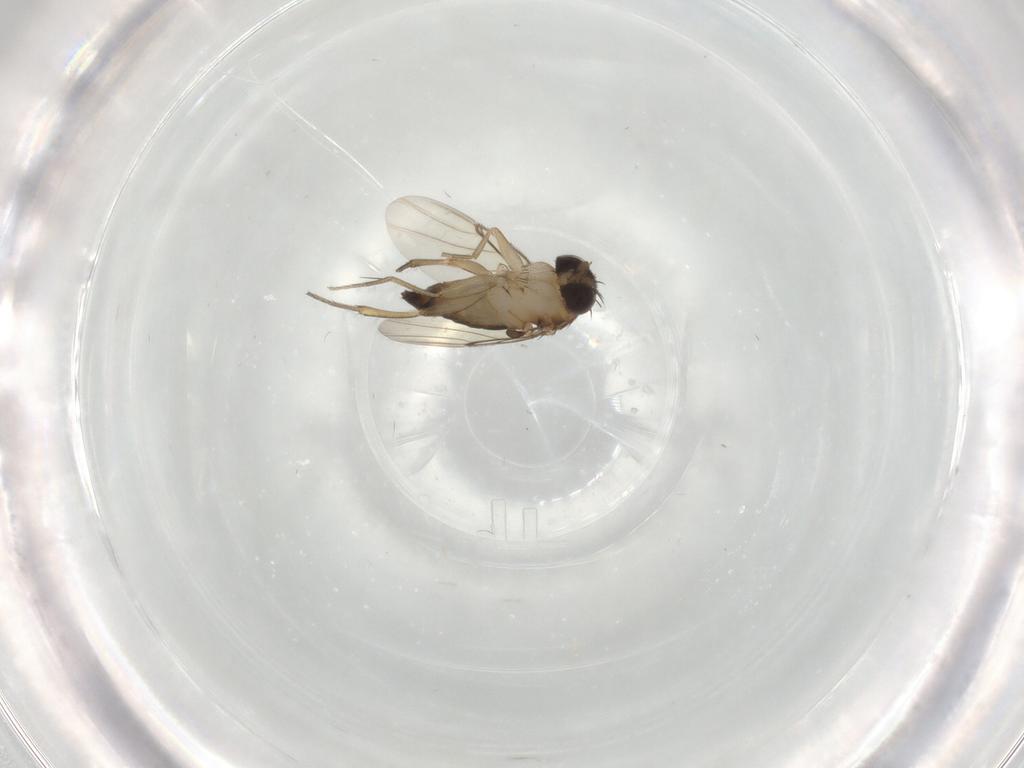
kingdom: Animalia
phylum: Arthropoda
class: Insecta
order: Diptera
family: Phoridae
